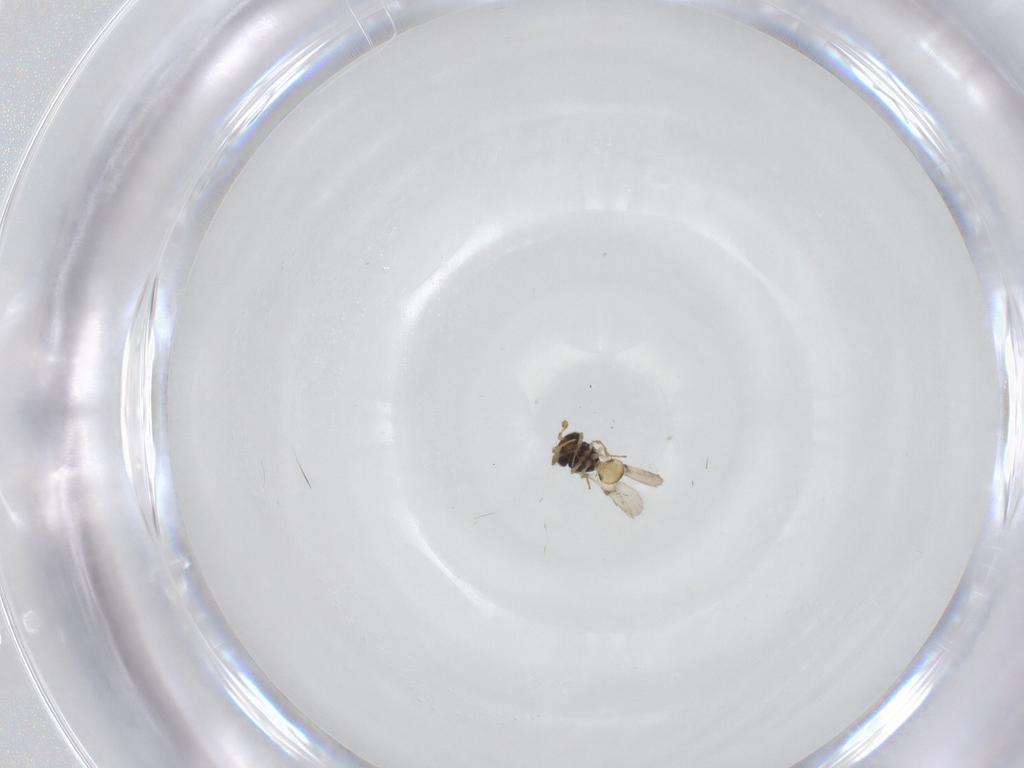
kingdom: Animalia
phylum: Arthropoda
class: Insecta
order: Hymenoptera
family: Scelionidae
